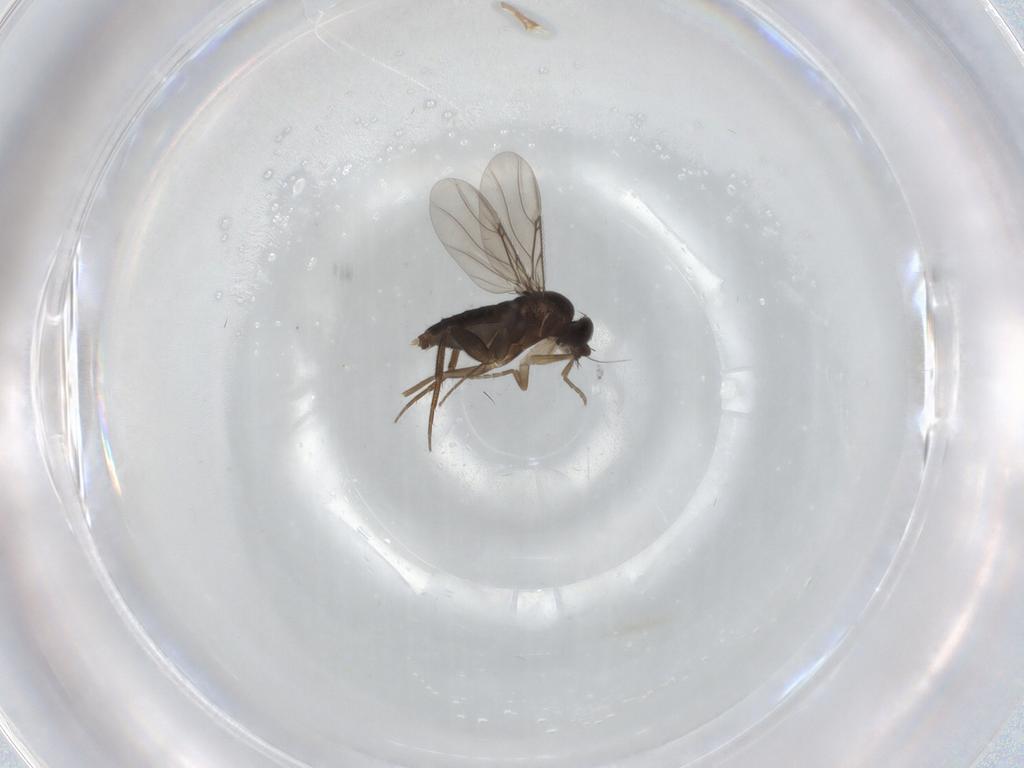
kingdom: Animalia
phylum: Arthropoda
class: Insecta
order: Diptera
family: Phoridae
